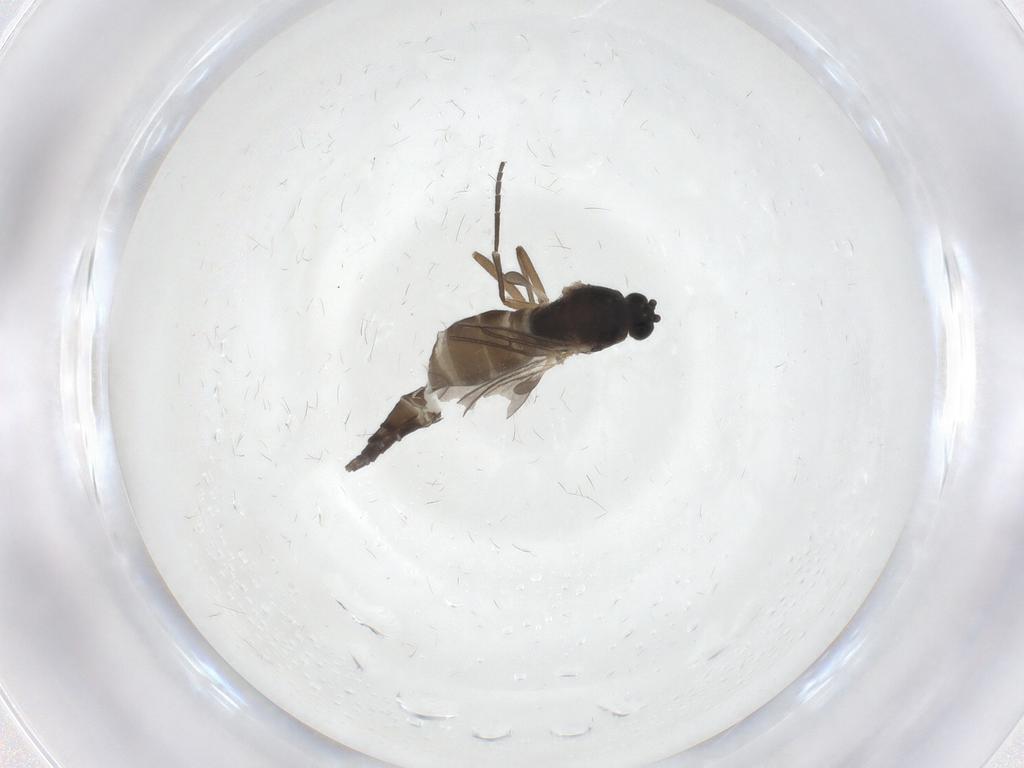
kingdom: Animalia
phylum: Arthropoda
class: Insecta
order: Diptera
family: Sciaridae
